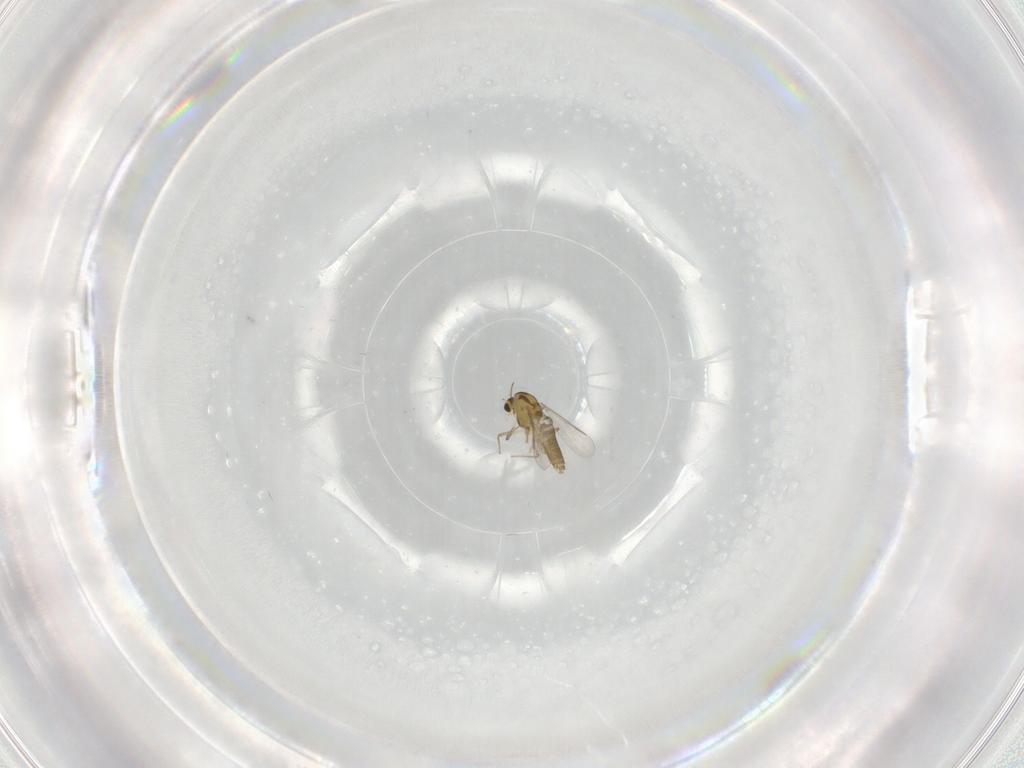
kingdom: Animalia
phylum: Arthropoda
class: Insecta
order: Diptera
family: Chironomidae
